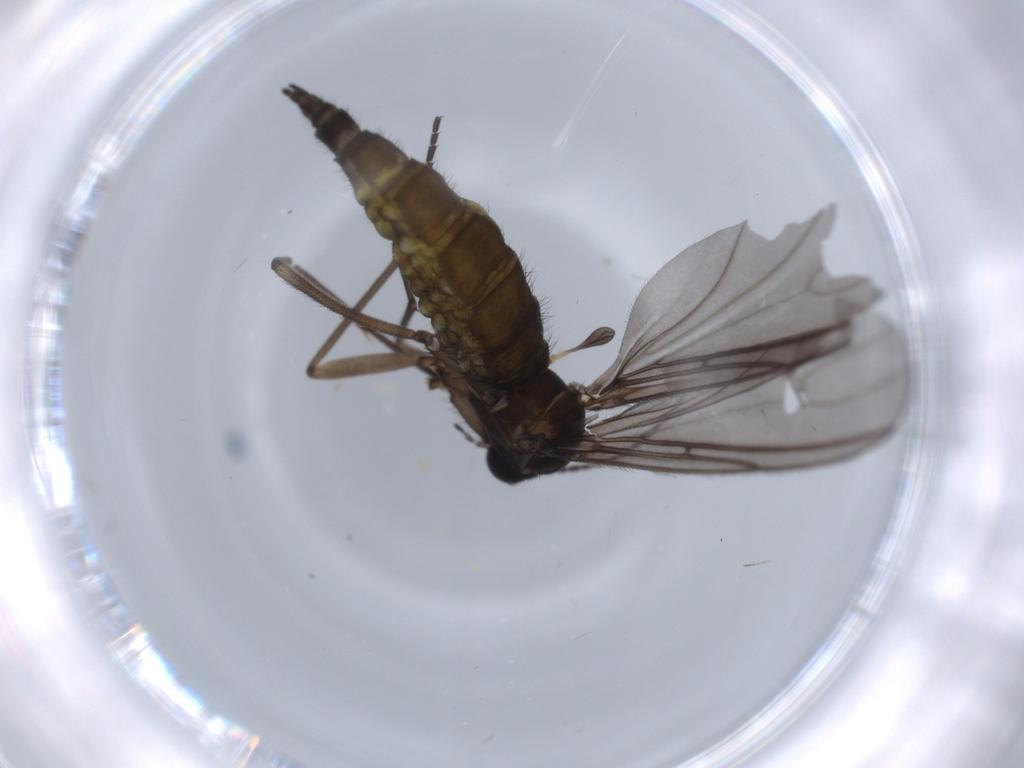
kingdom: Animalia
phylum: Arthropoda
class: Insecta
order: Diptera
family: Sciaridae
